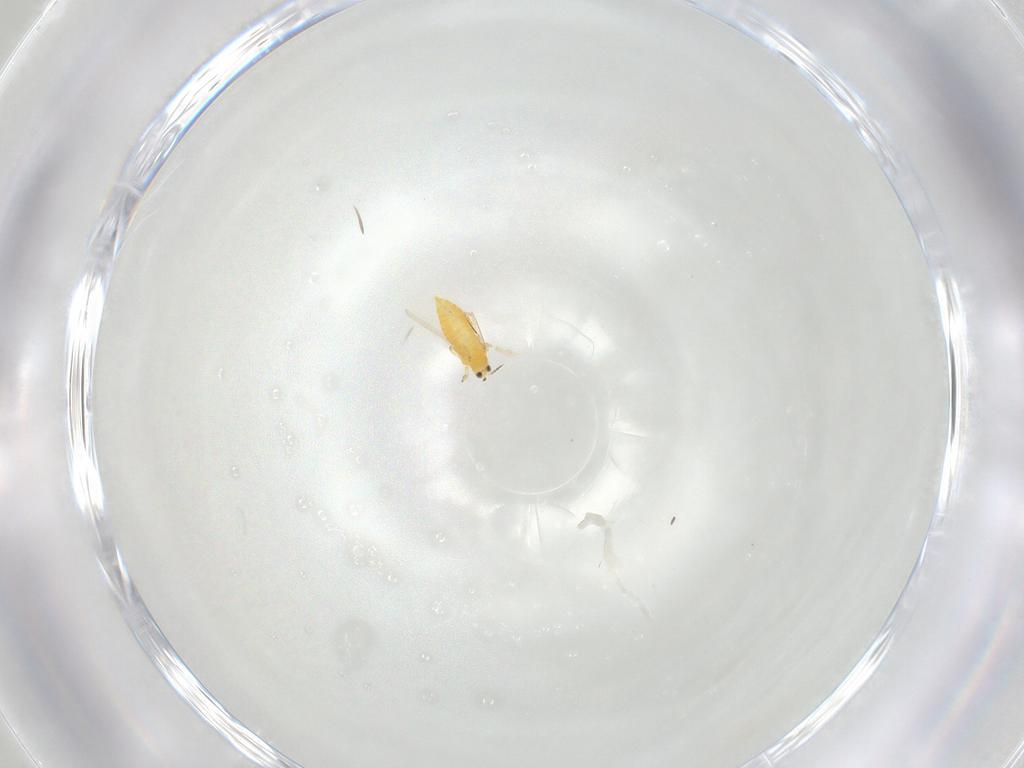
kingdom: Animalia
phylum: Arthropoda
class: Insecta
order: Thysanoptera
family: Thripidae
